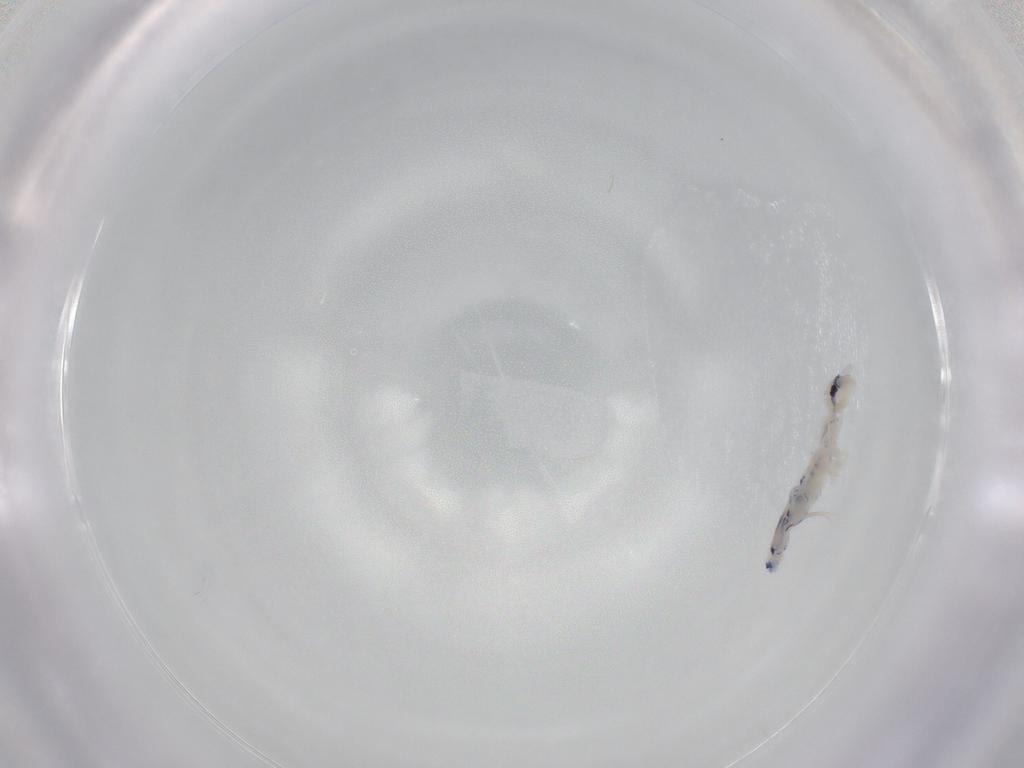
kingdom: Animalia
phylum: Arthropoda
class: Collembola
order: Entomobryomorpha
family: Entomobryidae
